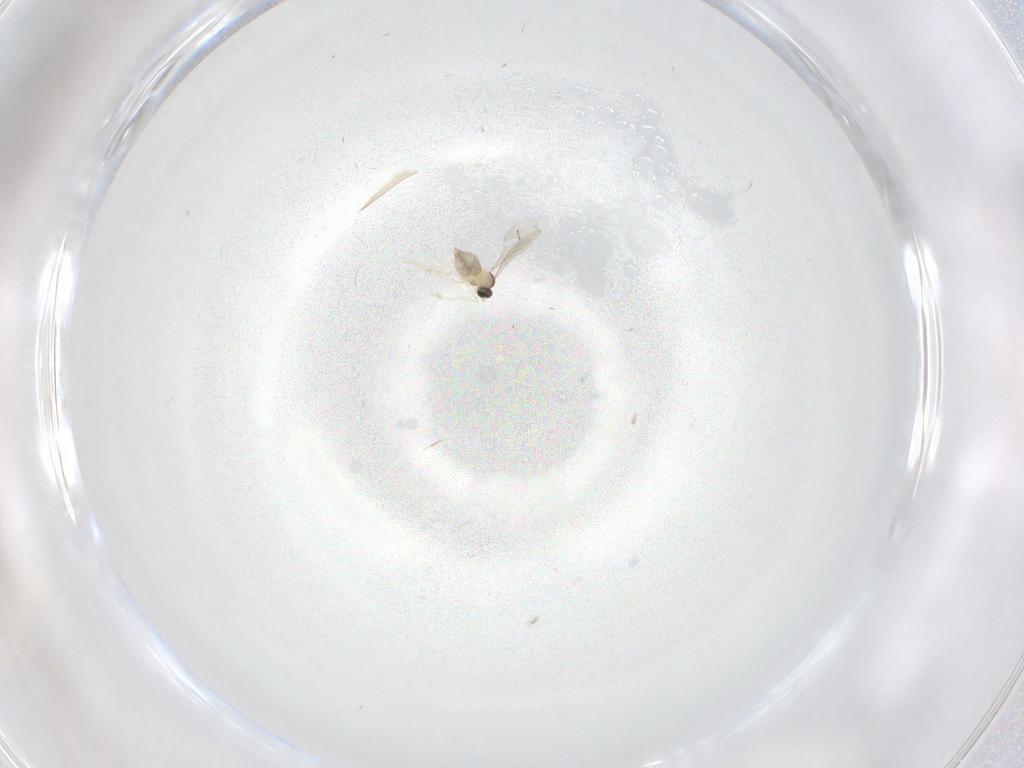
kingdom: Animalia
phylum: Arthropoda
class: Insecta
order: Diptera
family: Cecidomyiidae
